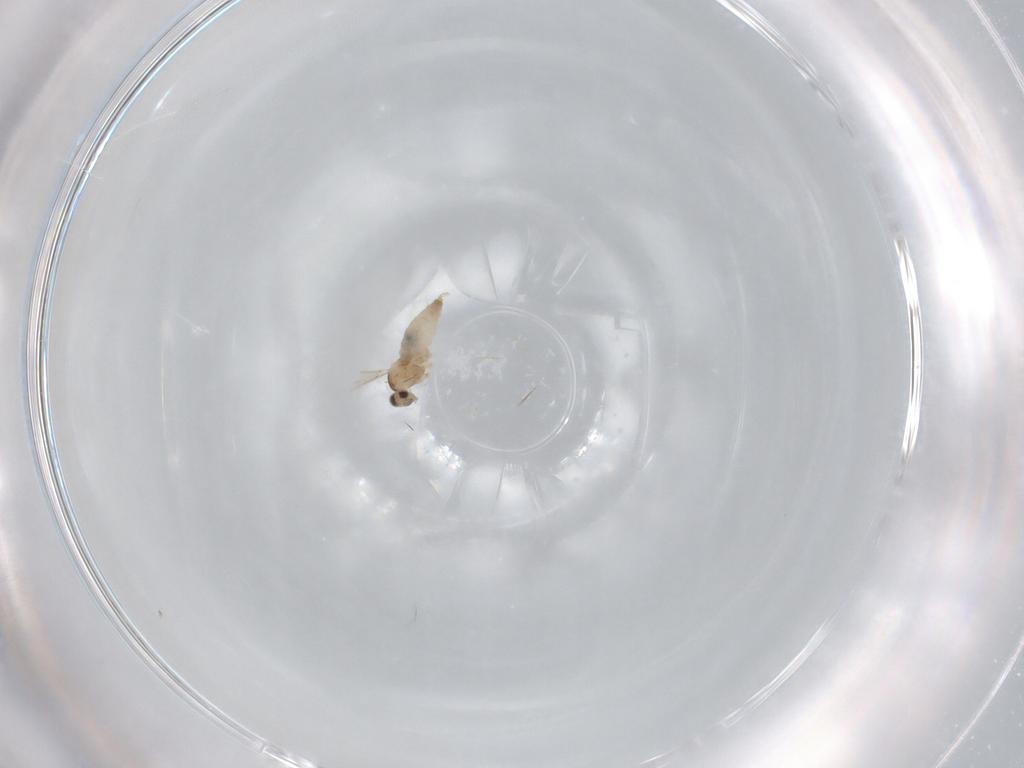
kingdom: Animalia
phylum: Arthropoda
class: Insecta
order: Diptera
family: Cecidomyiidae
